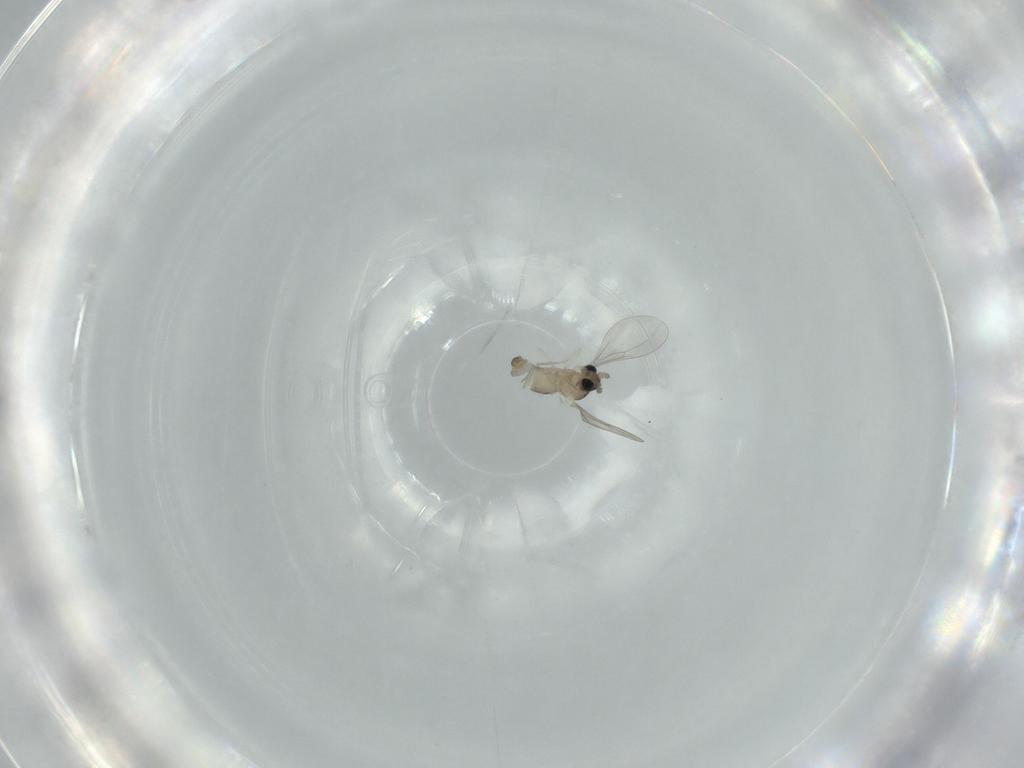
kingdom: Animalia
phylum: Arthropoda
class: Insecta
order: Diptera
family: Cecidomyiidae
